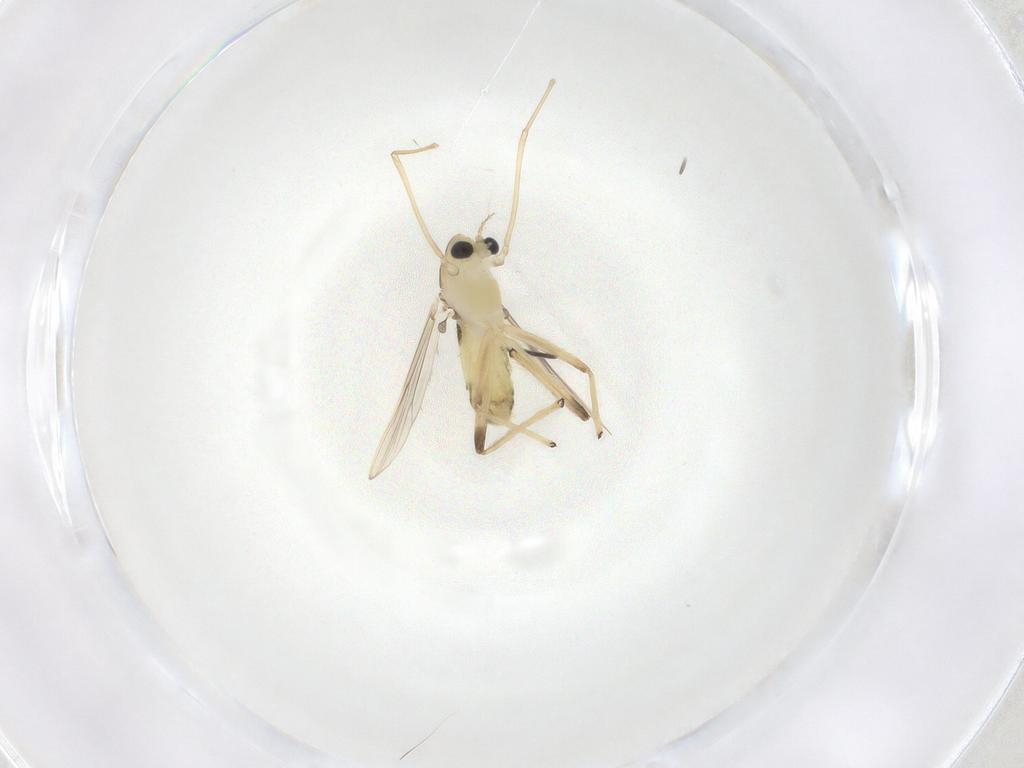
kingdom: Animalia
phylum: Arthropoda
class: Insecta
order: Diptera
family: Chironomidae
